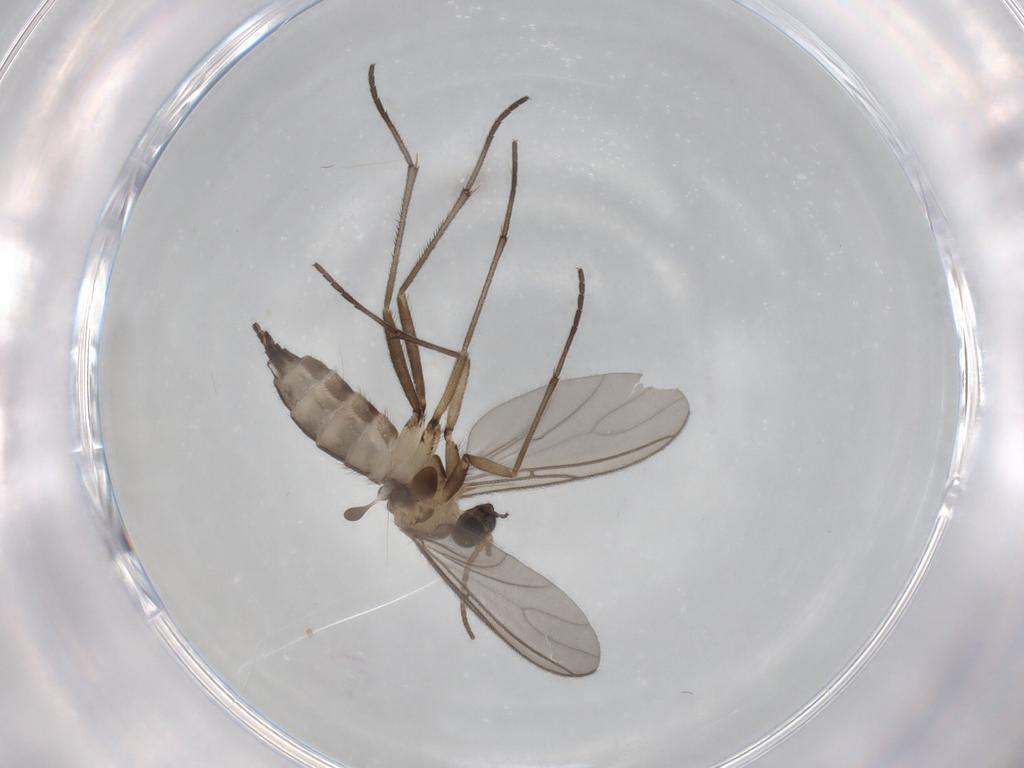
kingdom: Animalia
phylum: Arthropoda
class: Insecta
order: Diptera
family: Sciaridae
